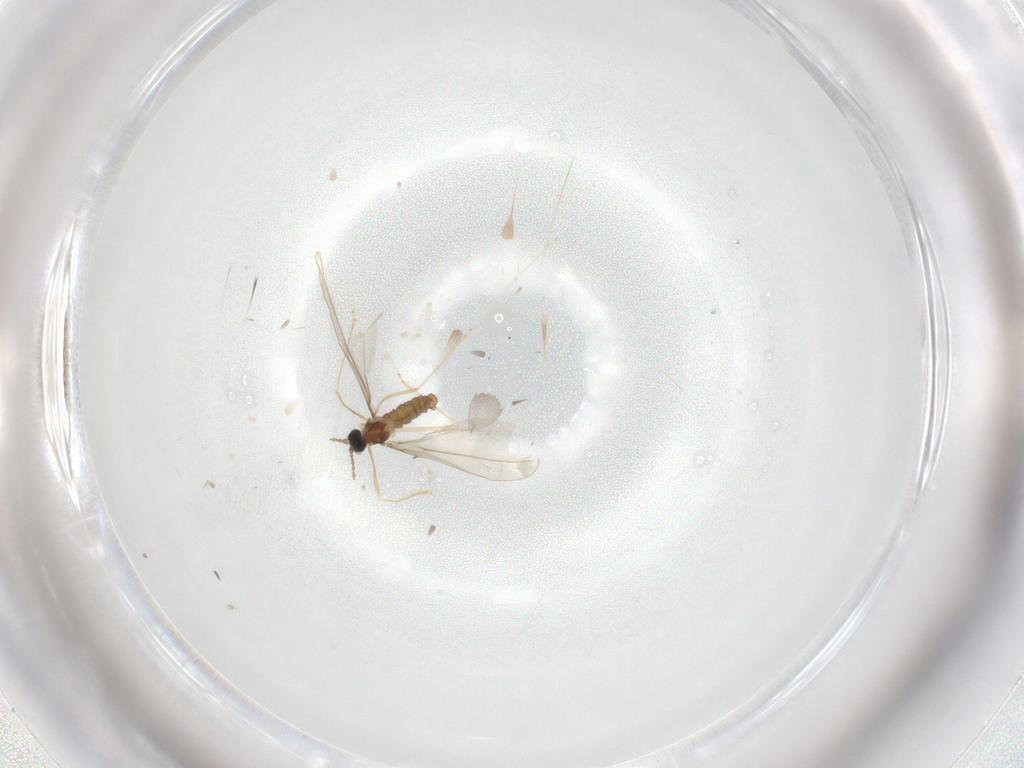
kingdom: Animalia
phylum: Arthropoda
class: Insecta
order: Diptera
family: Cecidomyiidae
